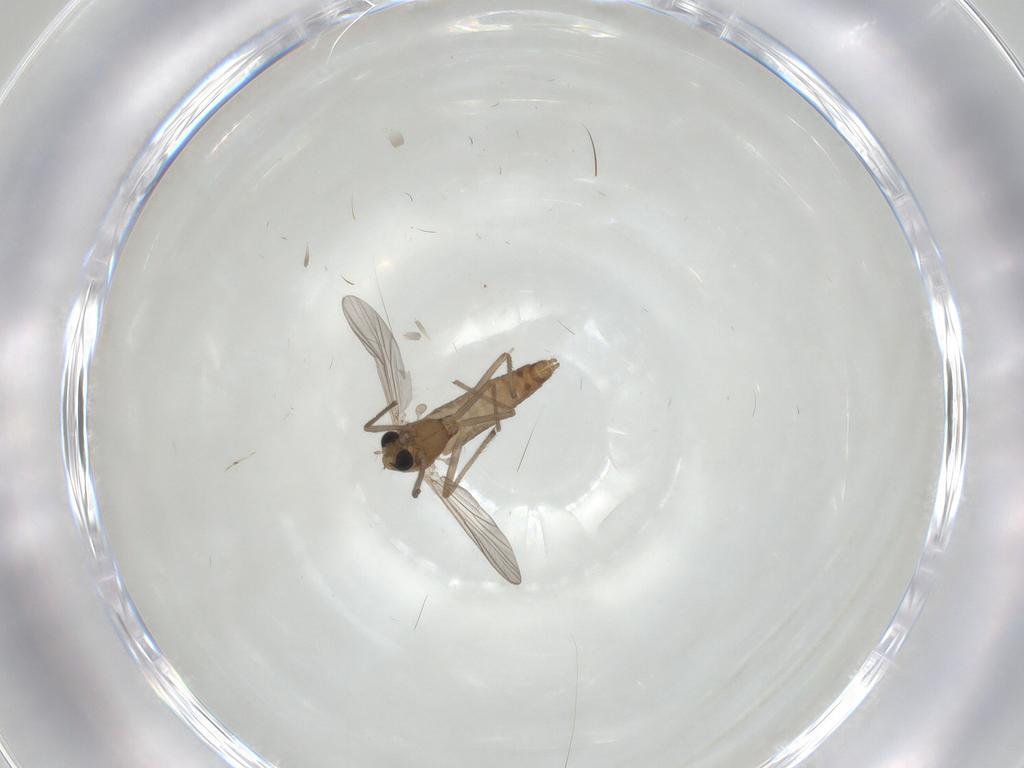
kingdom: Animalia
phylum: Arthropoda
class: Insecta
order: Diptera
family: Chironomidae
